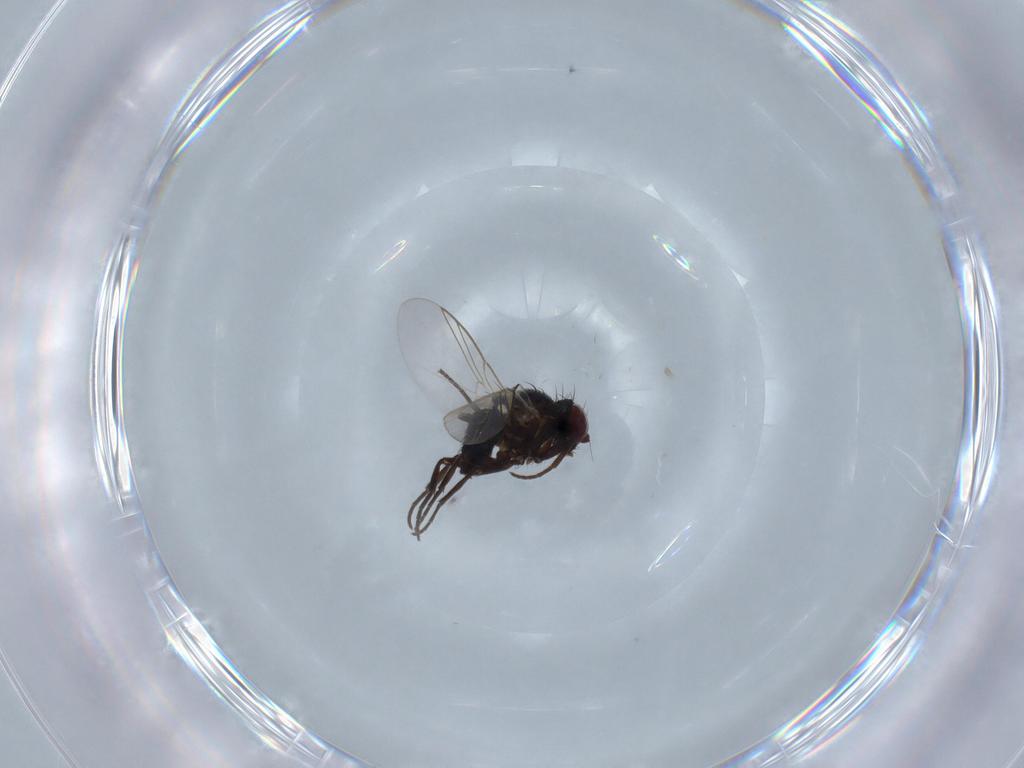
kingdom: Animalia
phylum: Arthropoda
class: Insecta
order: Diptera
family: Agromyzidae
